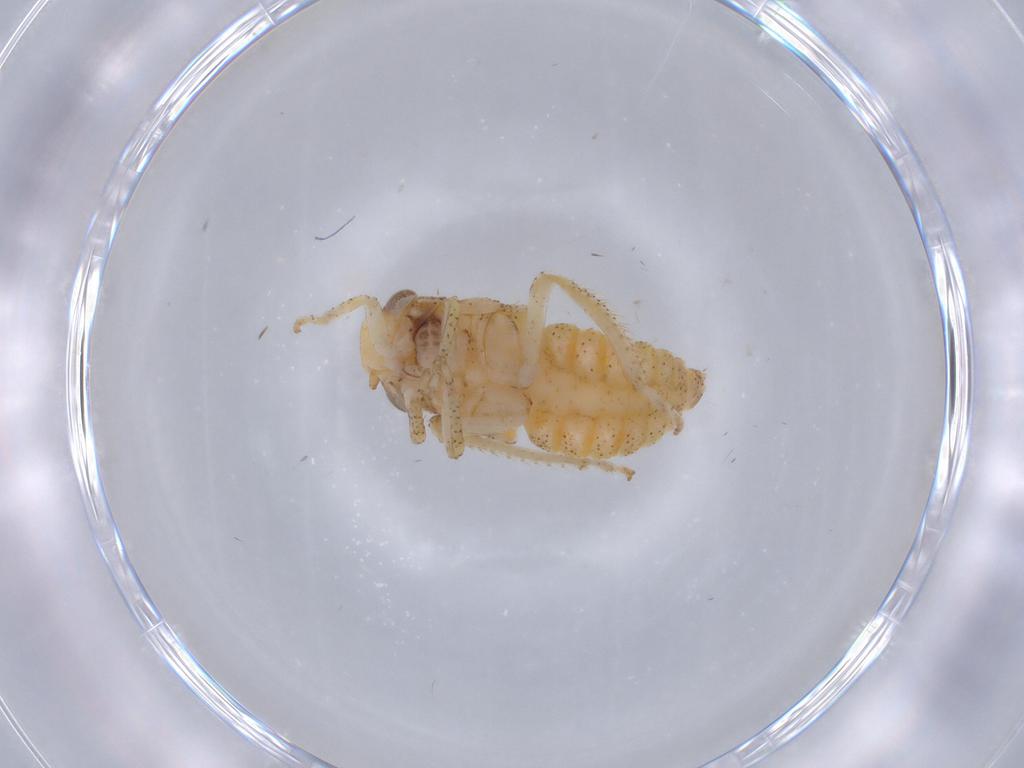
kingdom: Animalia
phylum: Arthropoda
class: Insecta
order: Hemiptera
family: Cicadellidae
